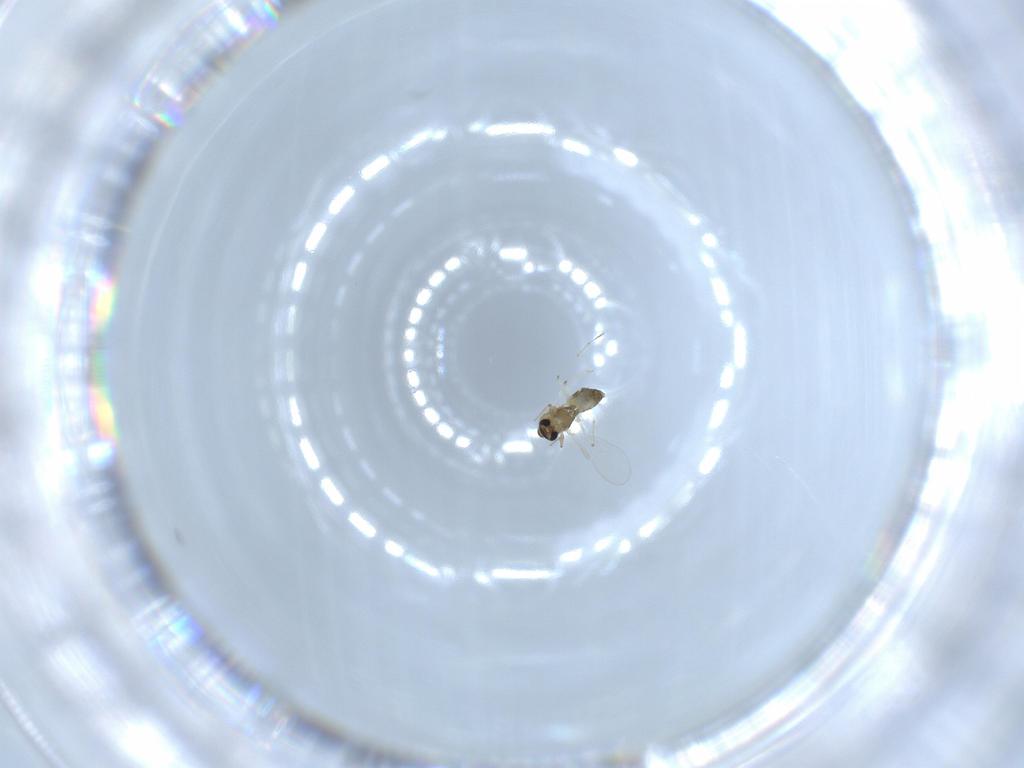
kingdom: Animalia
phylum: Arthropoda
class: Insecta
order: Diptera
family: Chironomidae
